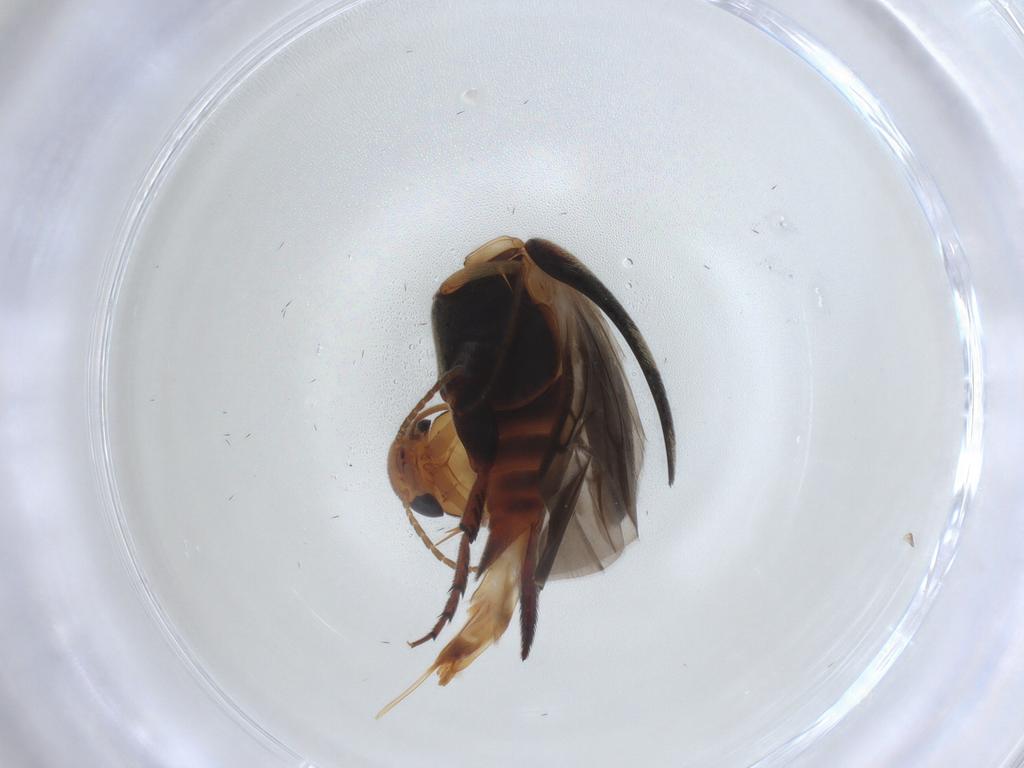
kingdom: Animalia
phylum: Arthropoda
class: Insecta
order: Coleoptera
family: Mordellidae
